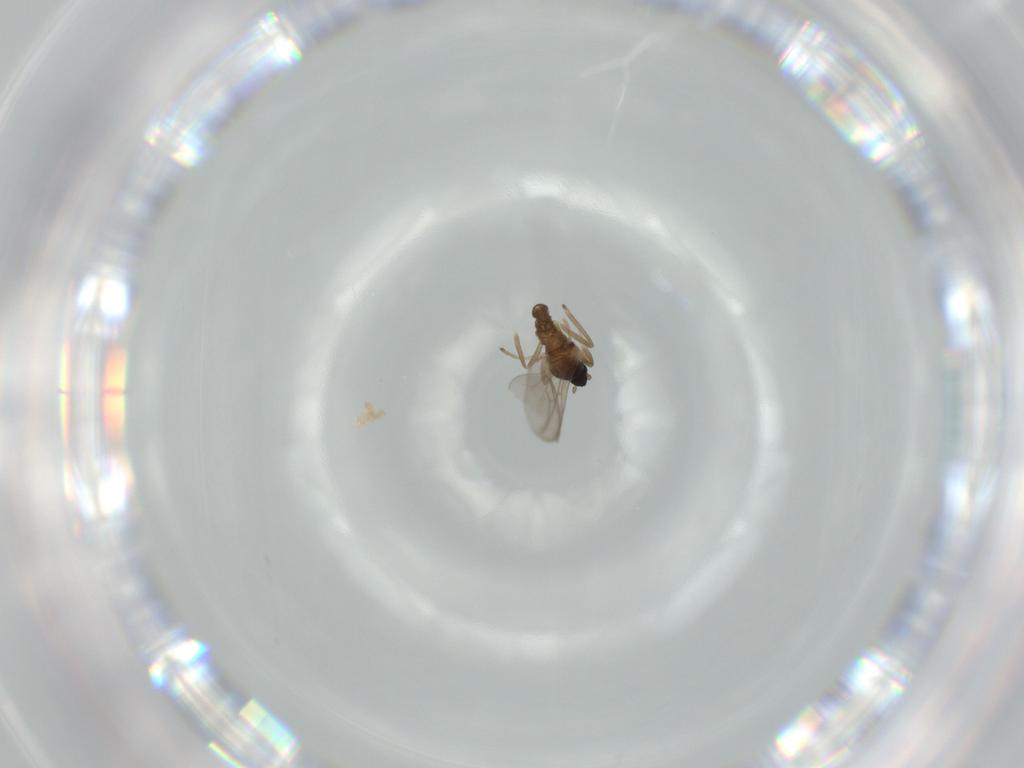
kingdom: Animalia
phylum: Arthropoda
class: Insecta
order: Diptera
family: Cecidomyiidae
